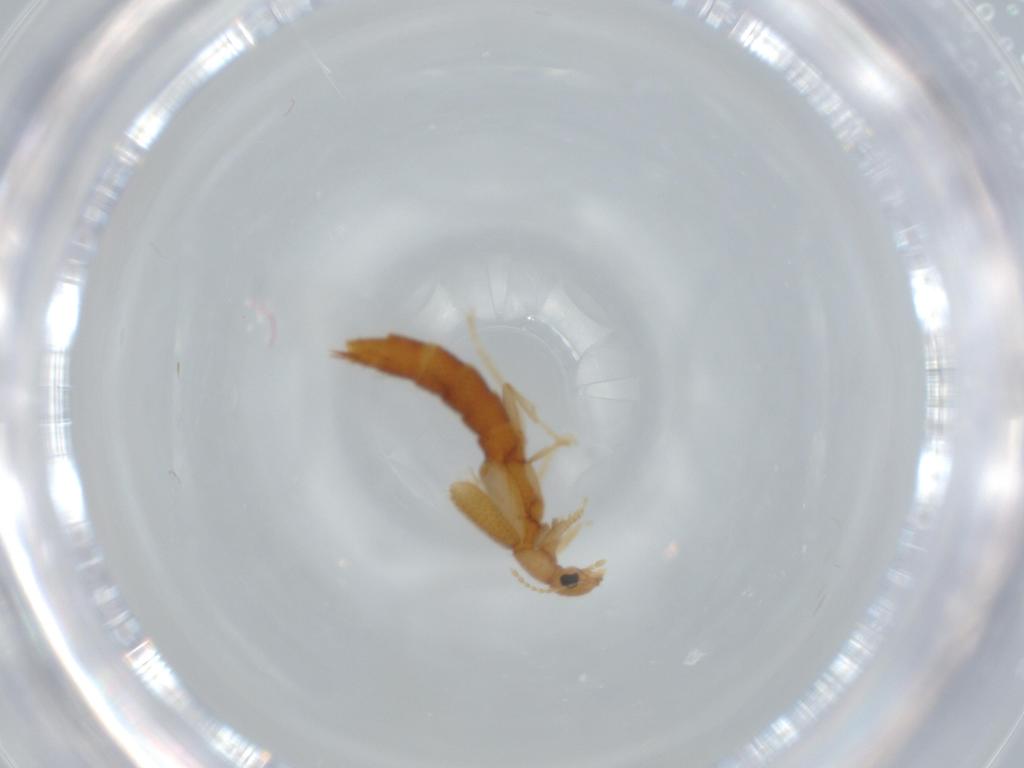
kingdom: Animalia
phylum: Arthropoda
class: Insecta
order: Coleoptera
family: Staphylinidae
